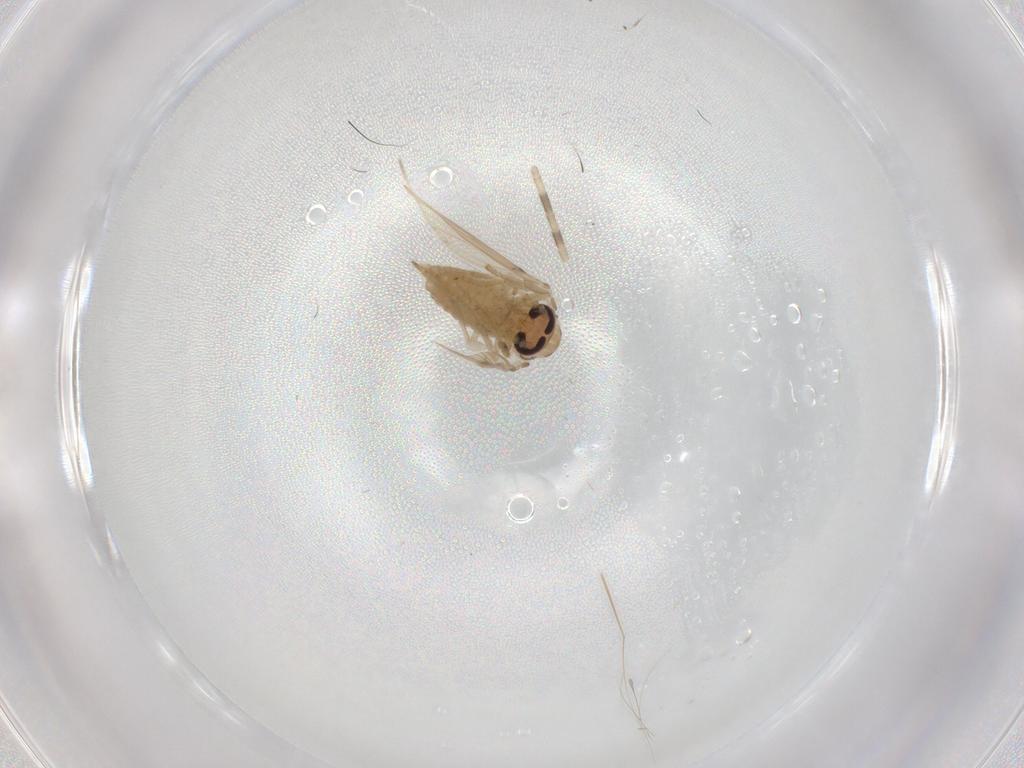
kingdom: Animalia
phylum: Arthropoda
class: Insecta
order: Diptera
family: Psychodidae
